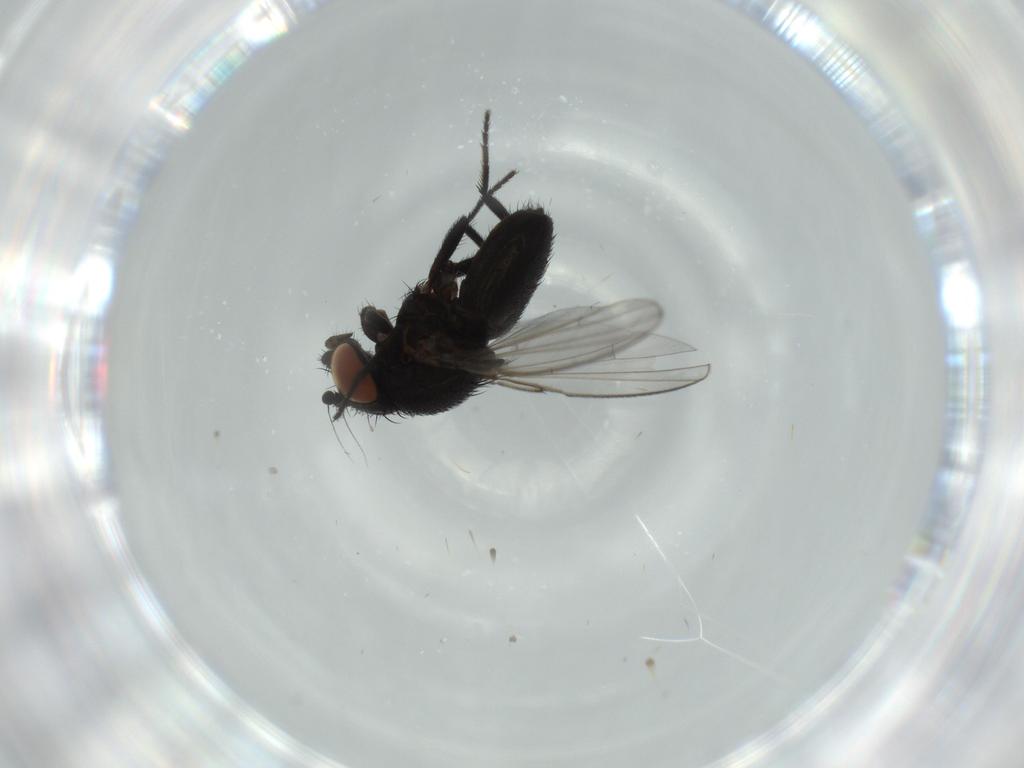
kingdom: Animalia
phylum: Arthropoda
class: Insecta
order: Diptera
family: Milichiidae
